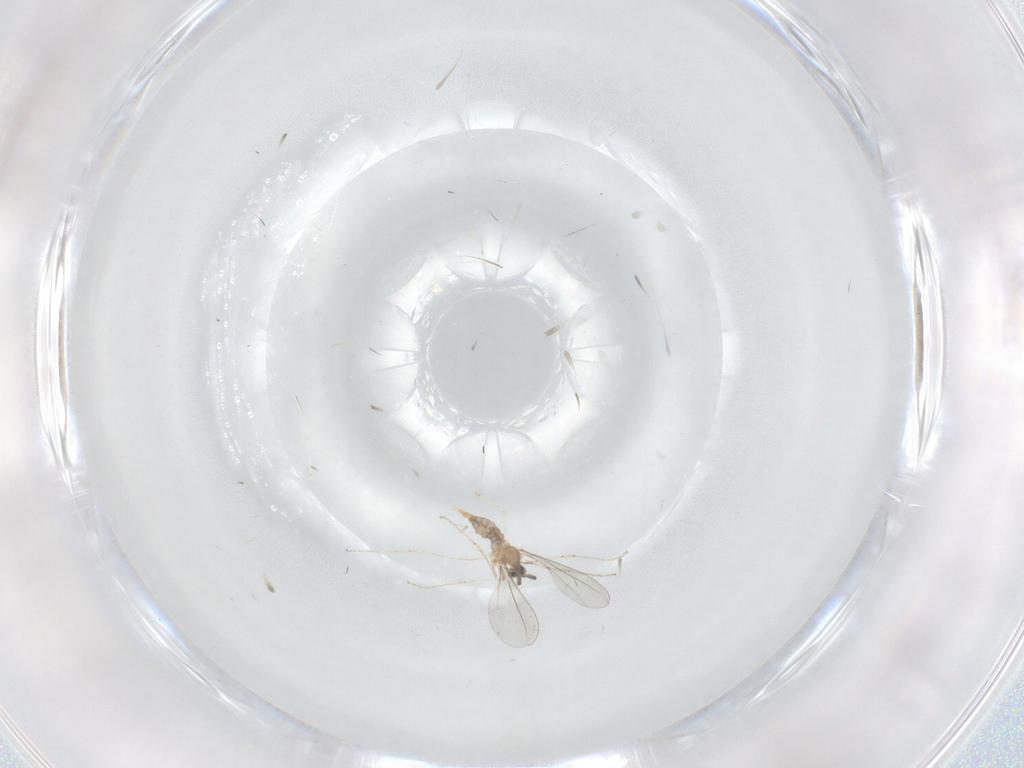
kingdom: Animalia
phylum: Arthropoda
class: Insecta
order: Diptera
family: Cecidomyiidae
